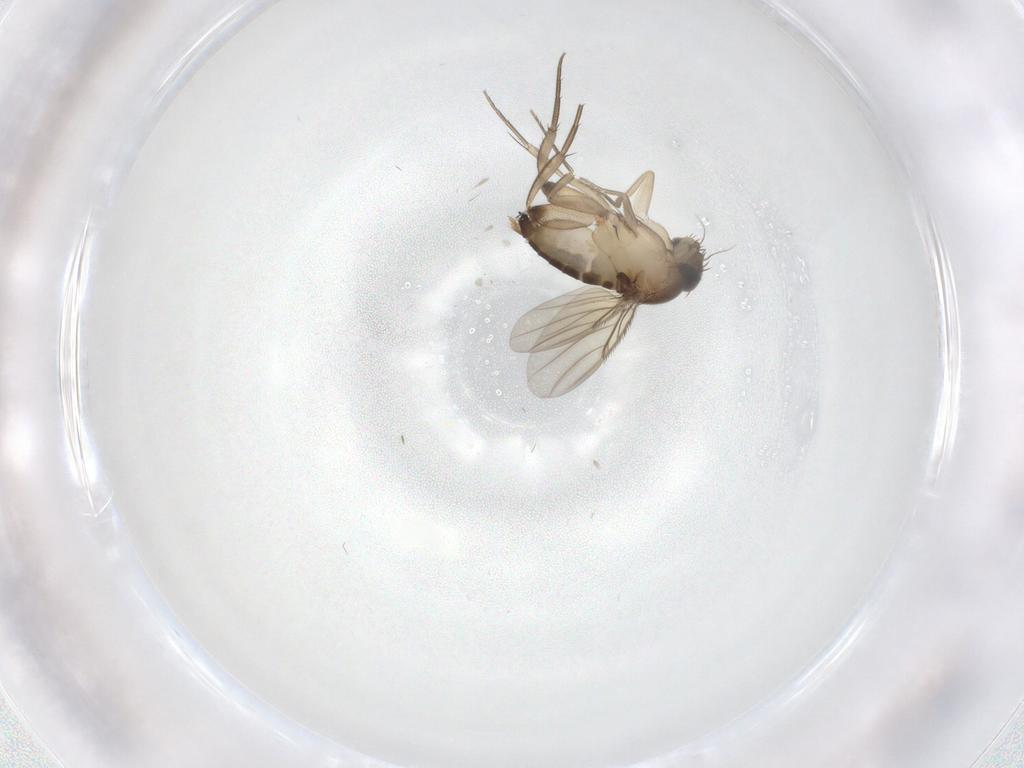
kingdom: Animalia
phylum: Arthropoda
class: Insecta
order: Diptera
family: Phoridae
